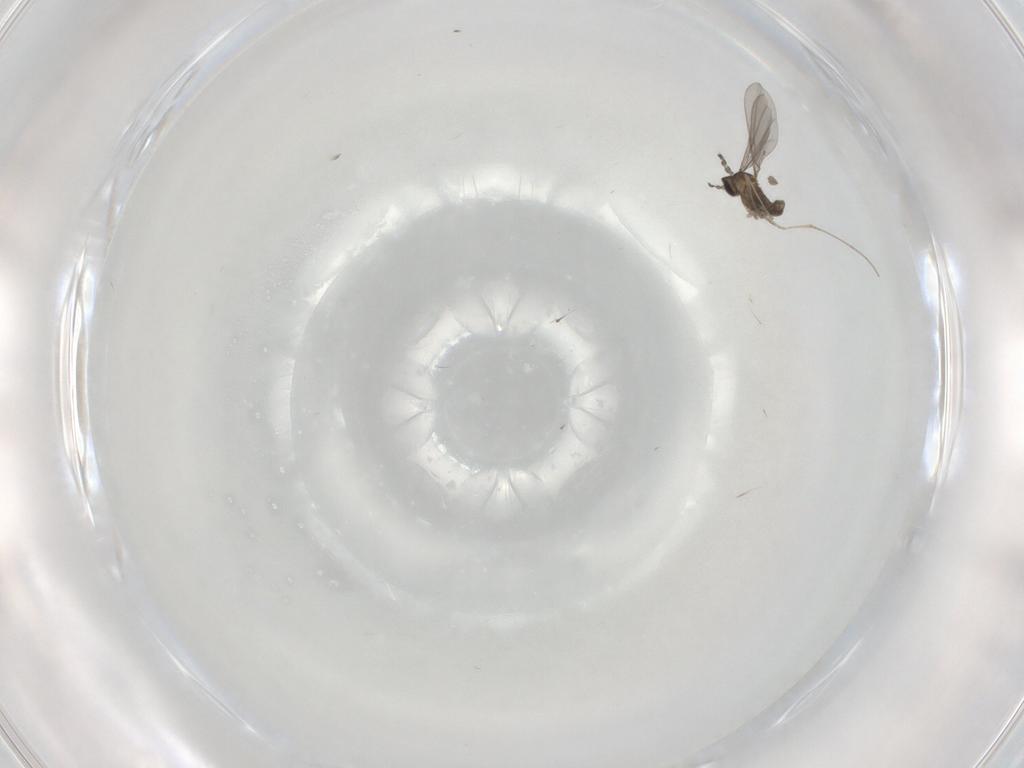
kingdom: Animalia
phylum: Arthropoda
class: Insecta
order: Diptera
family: Cecidomyiidae
